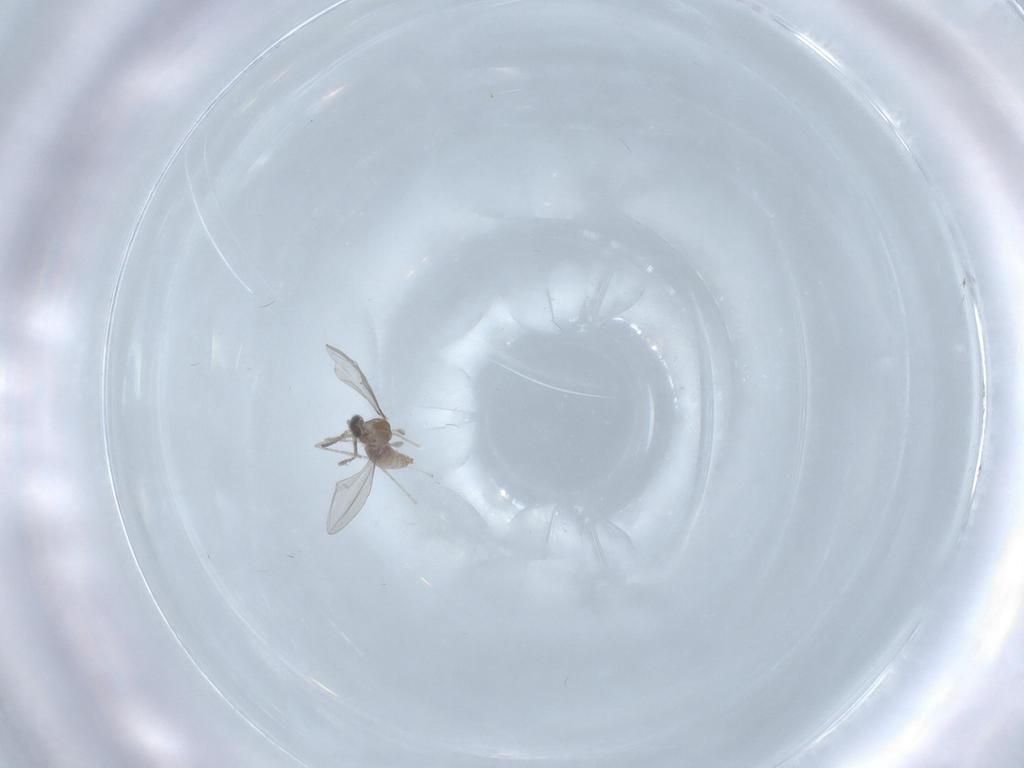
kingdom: Animalia
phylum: Arthropoda
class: Insecta
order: Diptera
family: Cecidomyiidae
